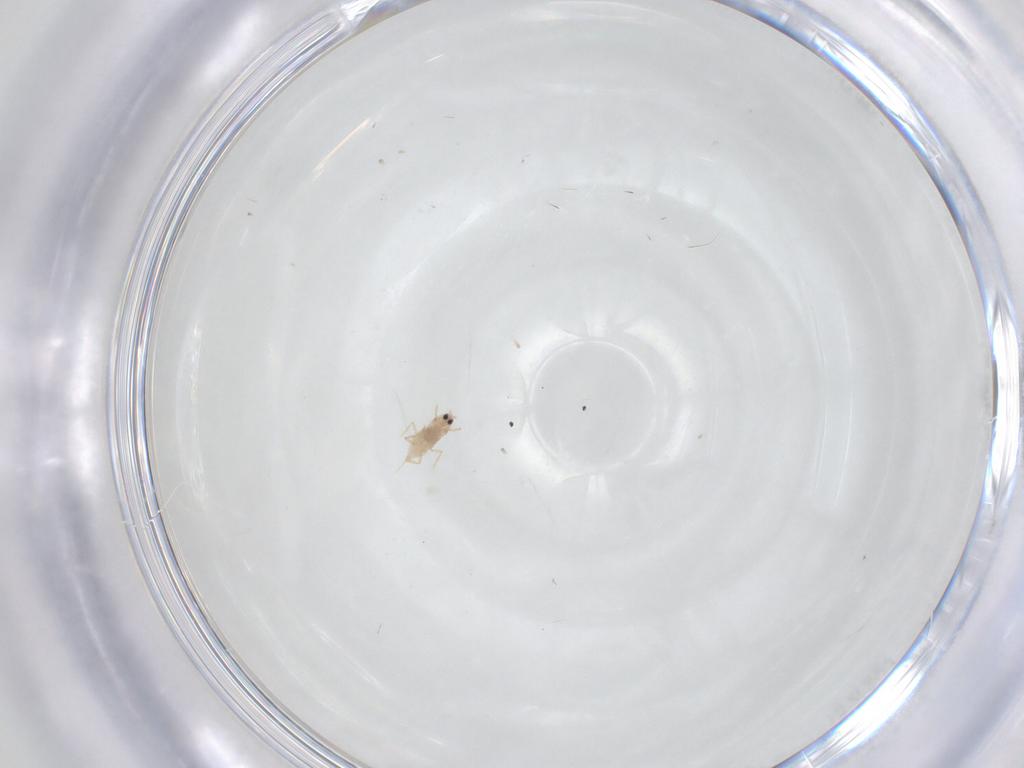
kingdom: Animalia
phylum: Arthropoda
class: Insecta
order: Hemiptera
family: Diaspididae
